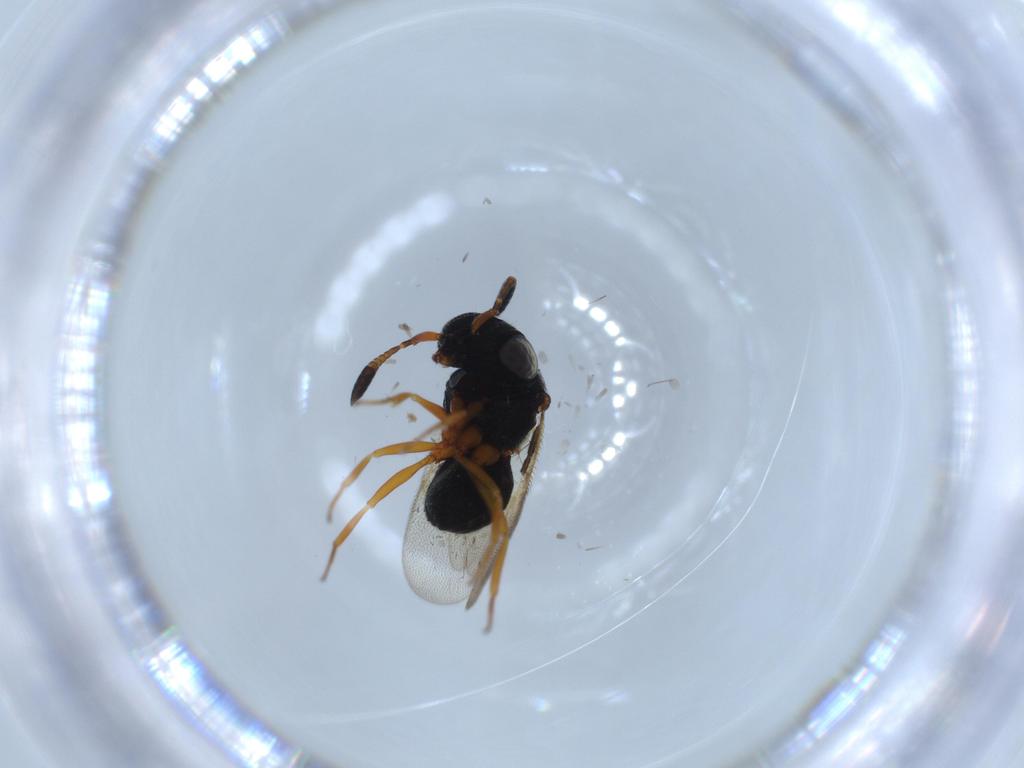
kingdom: Animalia
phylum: Arthropoda
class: Insecta
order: Hymenoptera
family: Scelionidae
